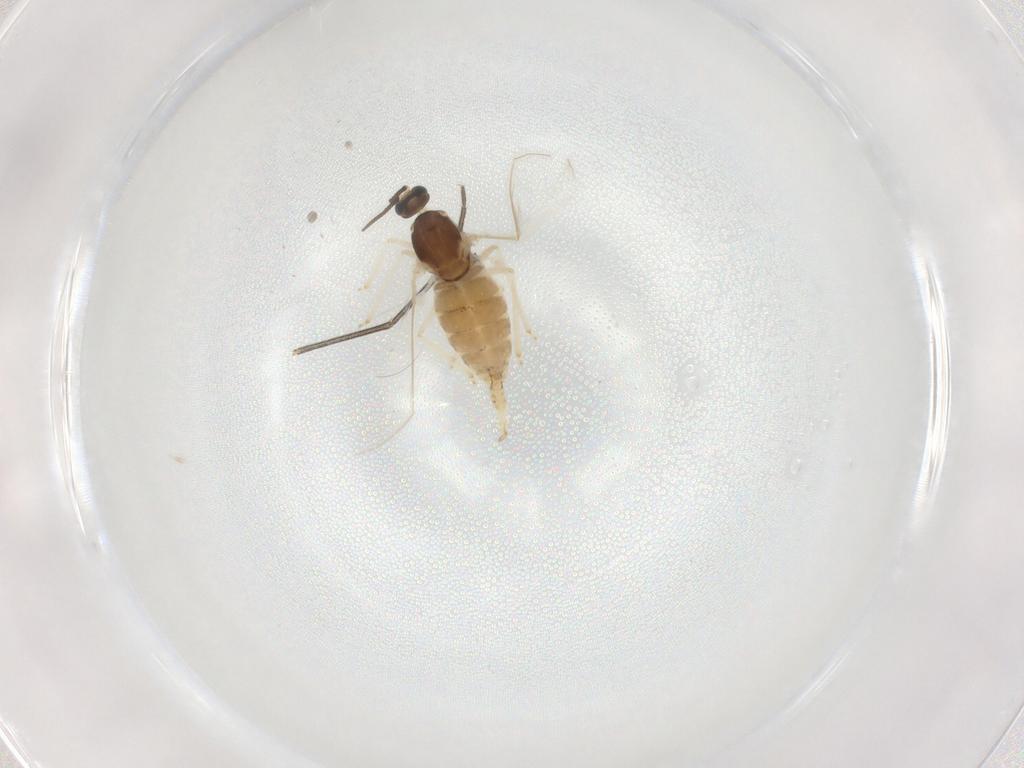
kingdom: Animalia
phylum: Arthropoda
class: Insecta
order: Diptera
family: Cecidomyiidae
